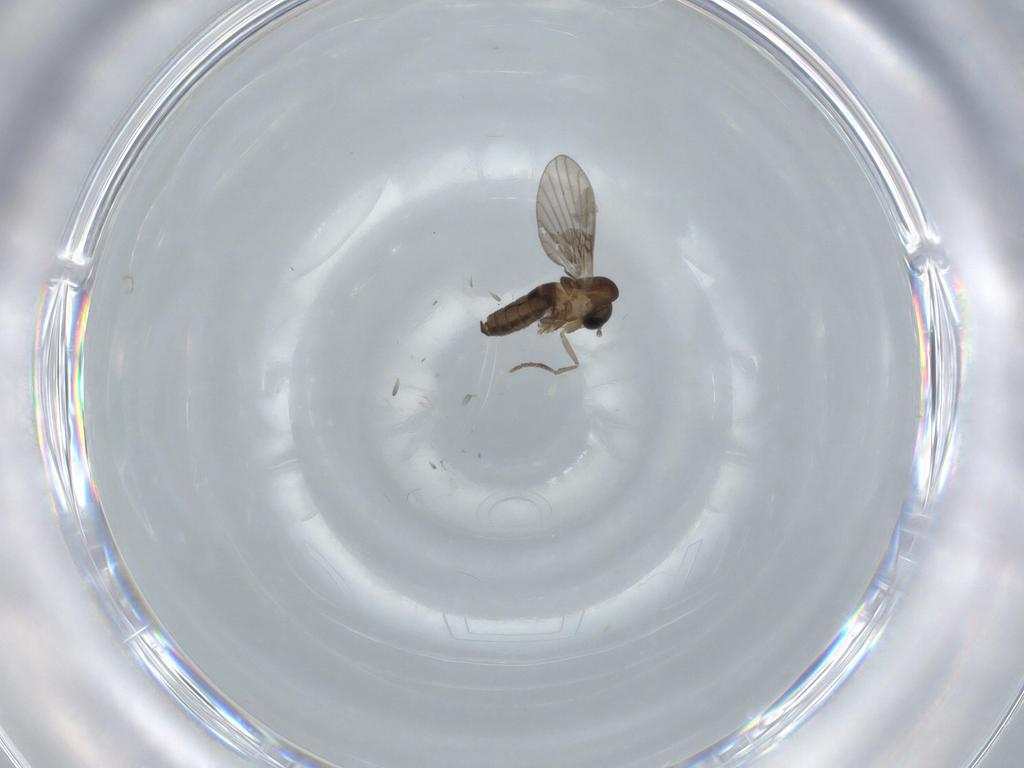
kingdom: Animalia
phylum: Arthropoda
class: Insecta
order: Diptera
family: Psychodidae
